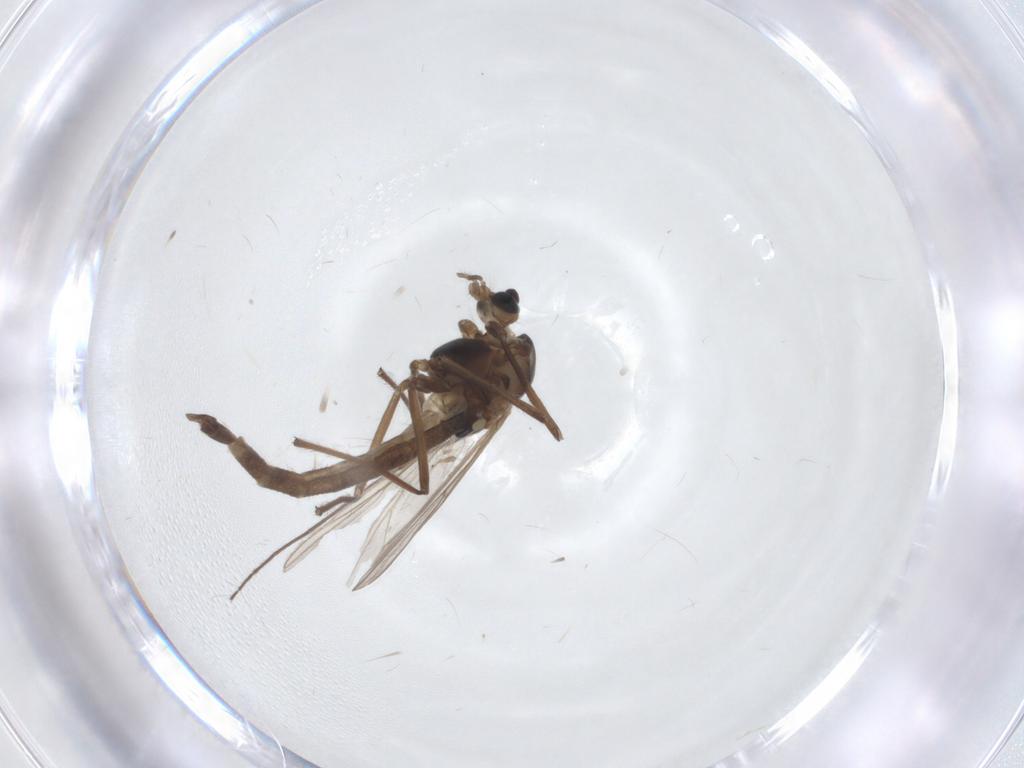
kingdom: Animalia
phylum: Arthropoda
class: Insecta
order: Diptera
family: Chironomidae
